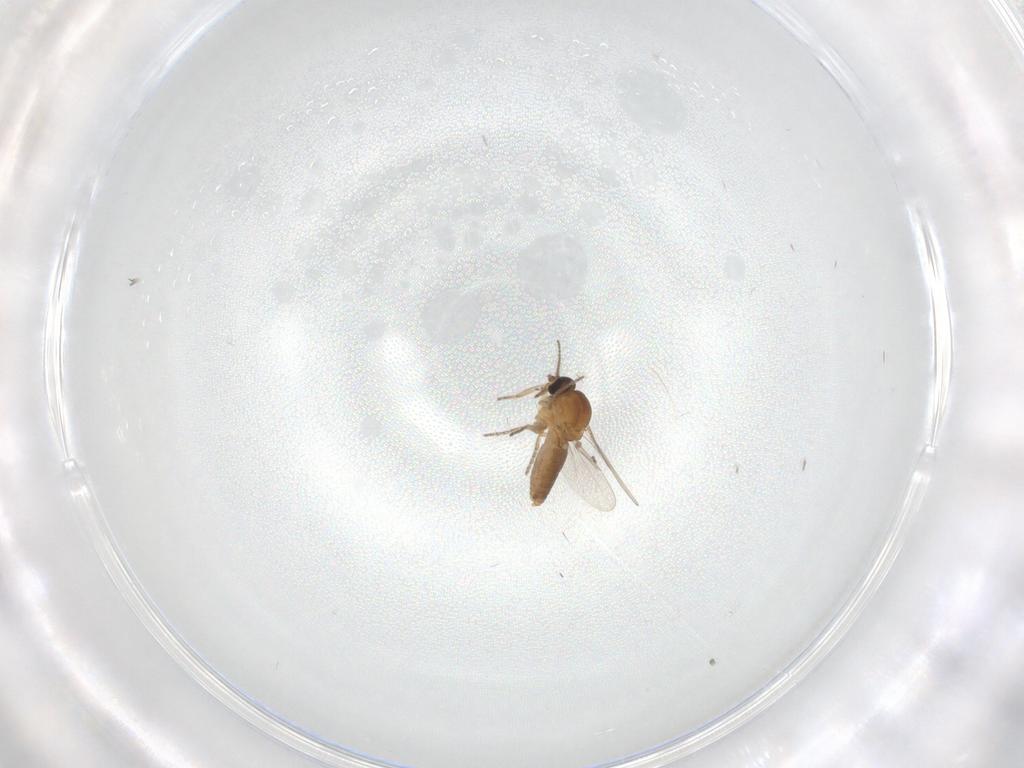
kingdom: Animalia
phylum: Arthropoda
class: Insecta
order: Diptera
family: Ceratopogonidae
